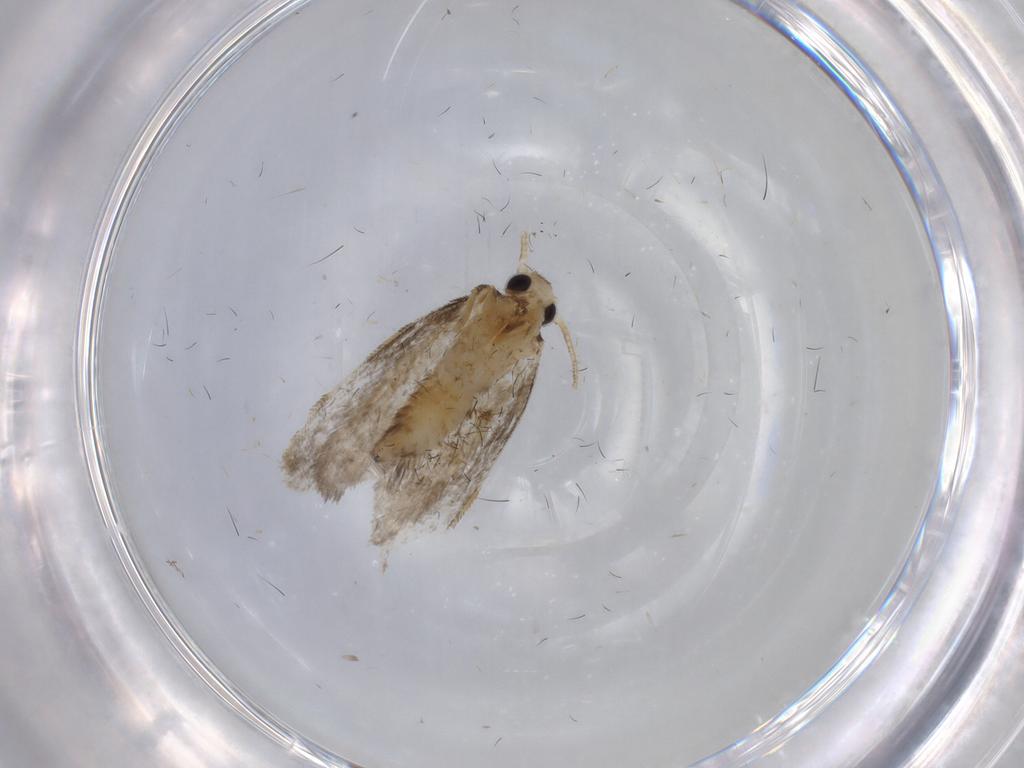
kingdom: Animalia
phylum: Arthropoda
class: Insecta
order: Lepidoptera
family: Psychidae
